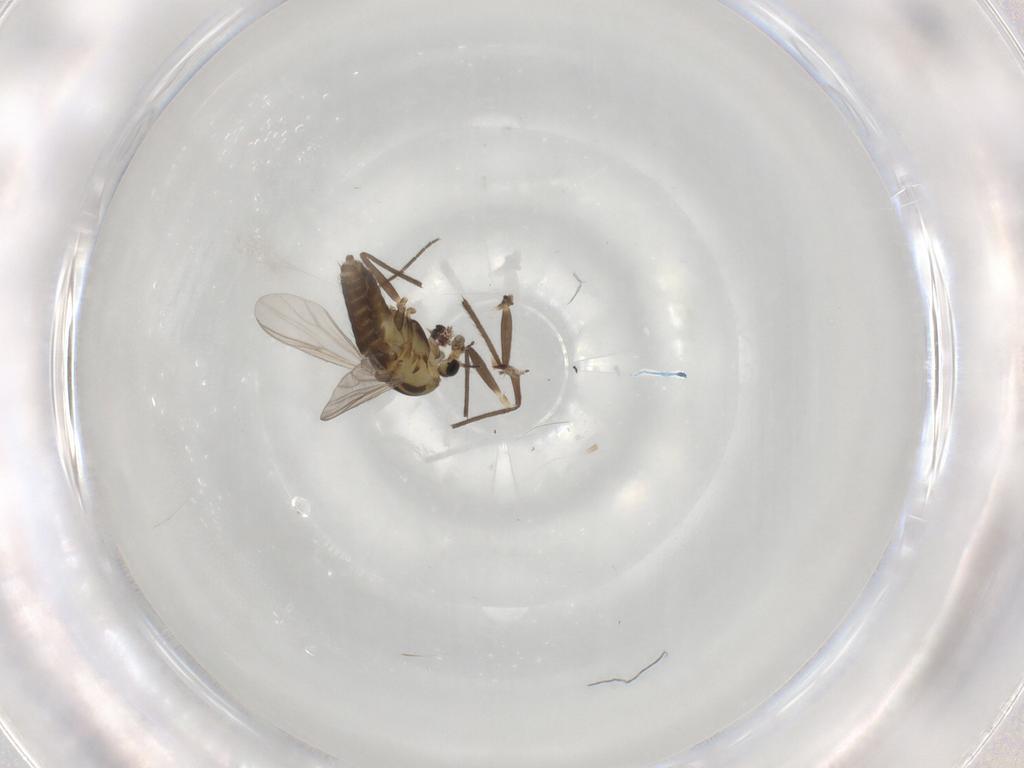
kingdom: Animalia
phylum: Arthropoda
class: Insecta
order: Diptera
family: Chironomidae
